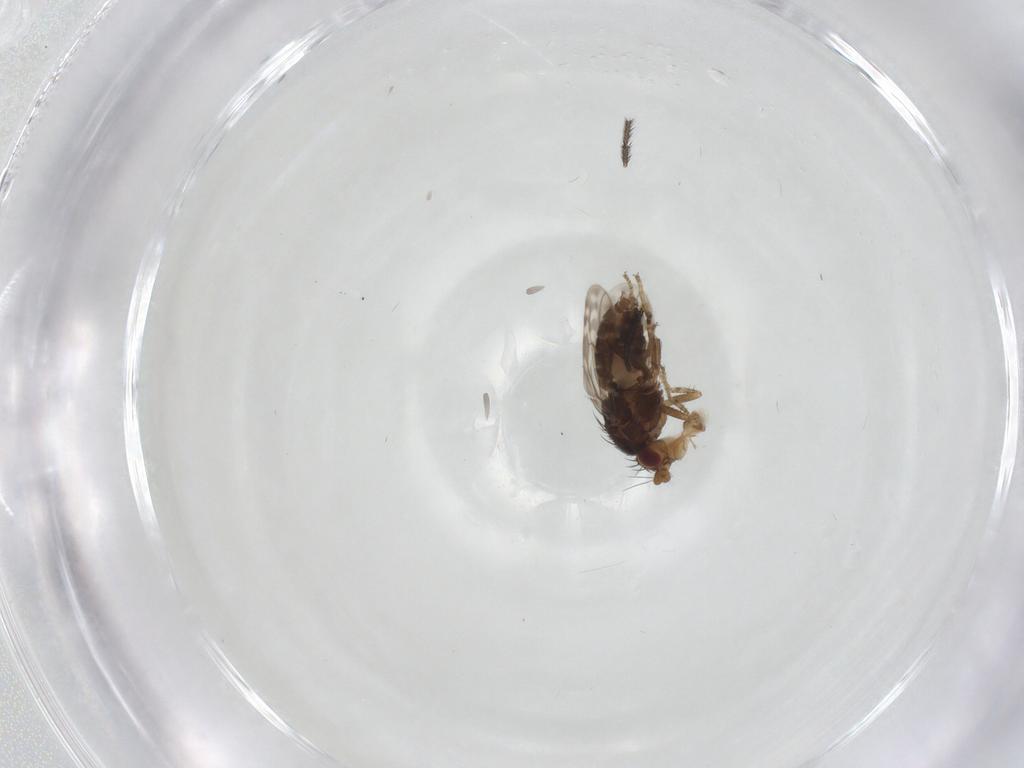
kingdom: Animalia
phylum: Arthropoda
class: Insecta
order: Diptera
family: Sphaeroceridae
